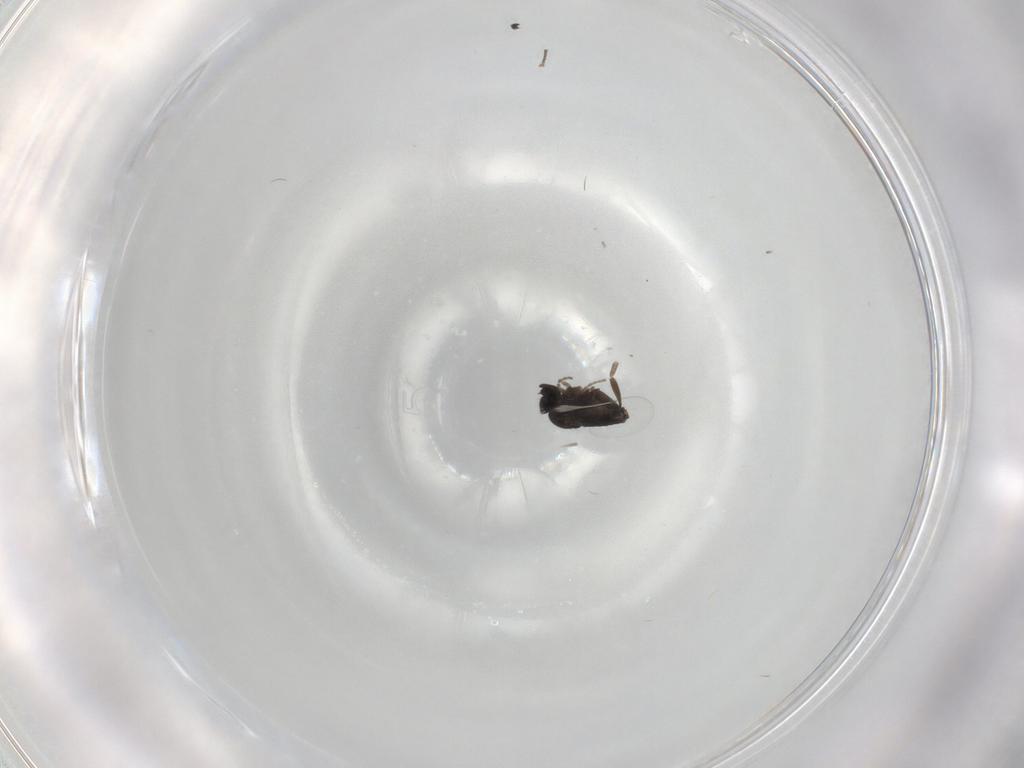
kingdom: Animalia
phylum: Arthropoda
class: Insecta
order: Diptera
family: Phoridae
